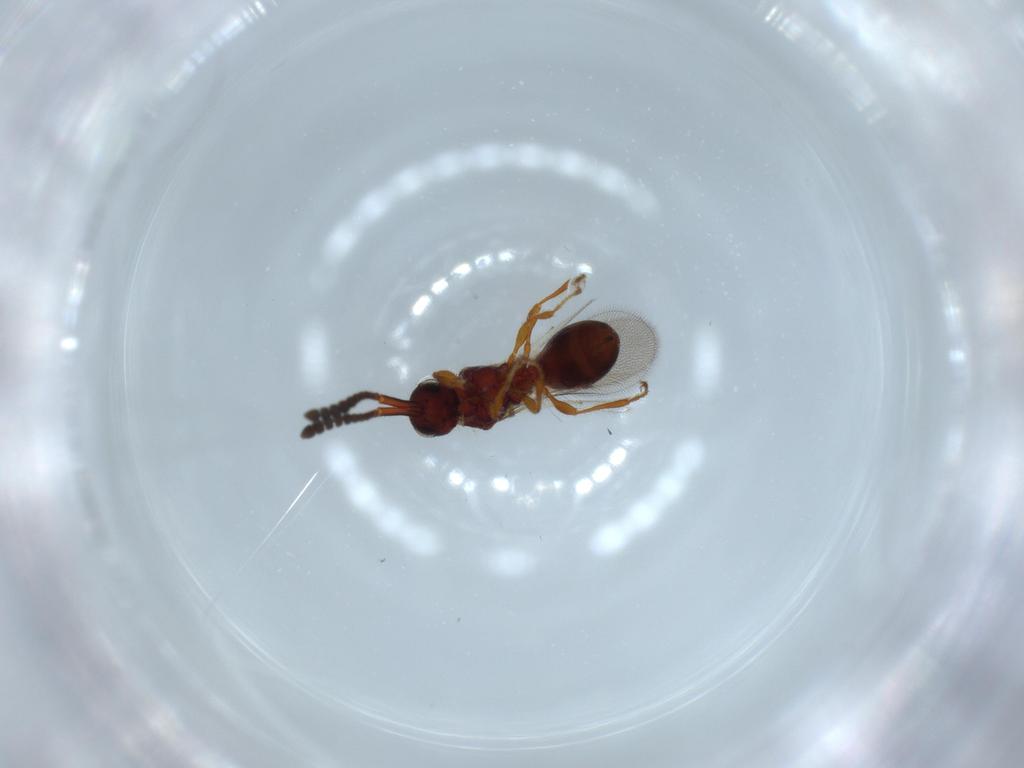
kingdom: Animalia
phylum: Arthropoda
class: Insecta
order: Hymenoptera
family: Diapriidae
